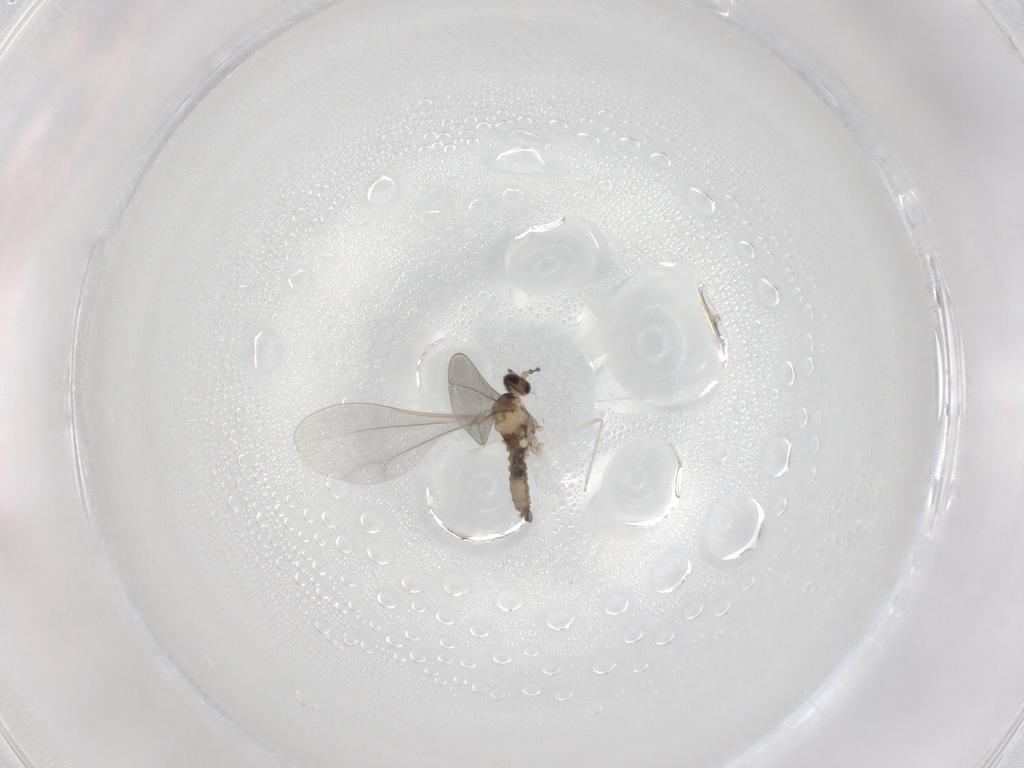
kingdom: Animalia
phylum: Arthropoda
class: Insecta
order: Diptera
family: Cecidomyiidae
